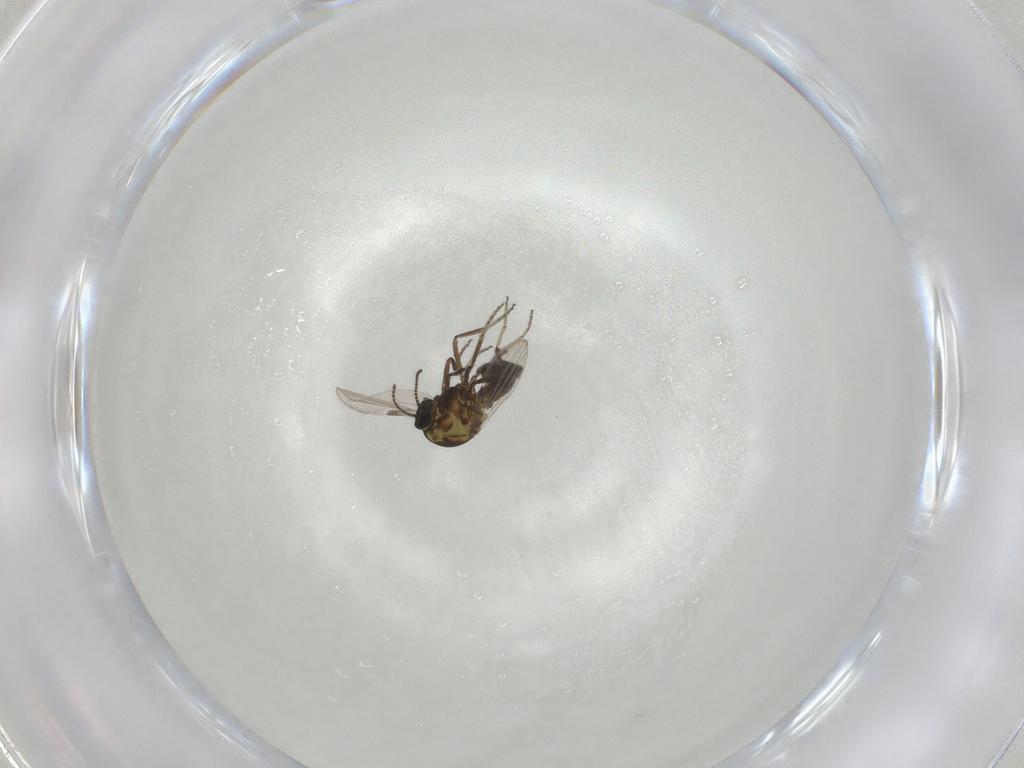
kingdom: Animalia
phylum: Arthropoda
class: Insecta
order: Diptera
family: Ceratopogonidae
